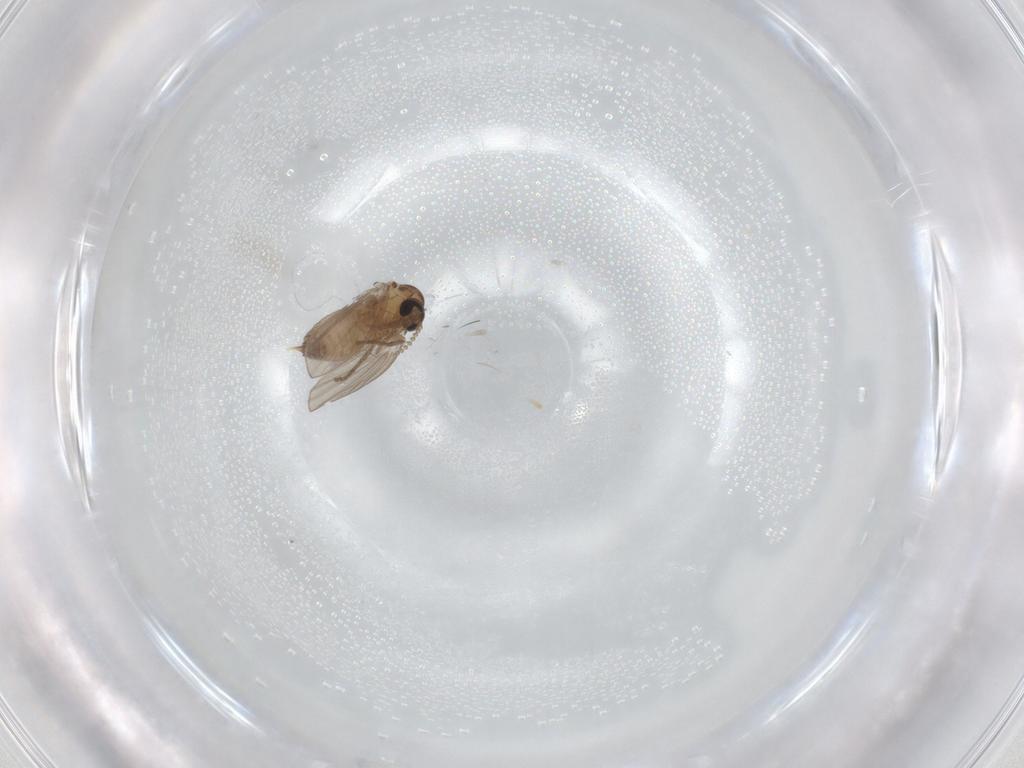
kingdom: Animalia
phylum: Arthropoda
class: Insecta
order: Diptera
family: Psychodidae
